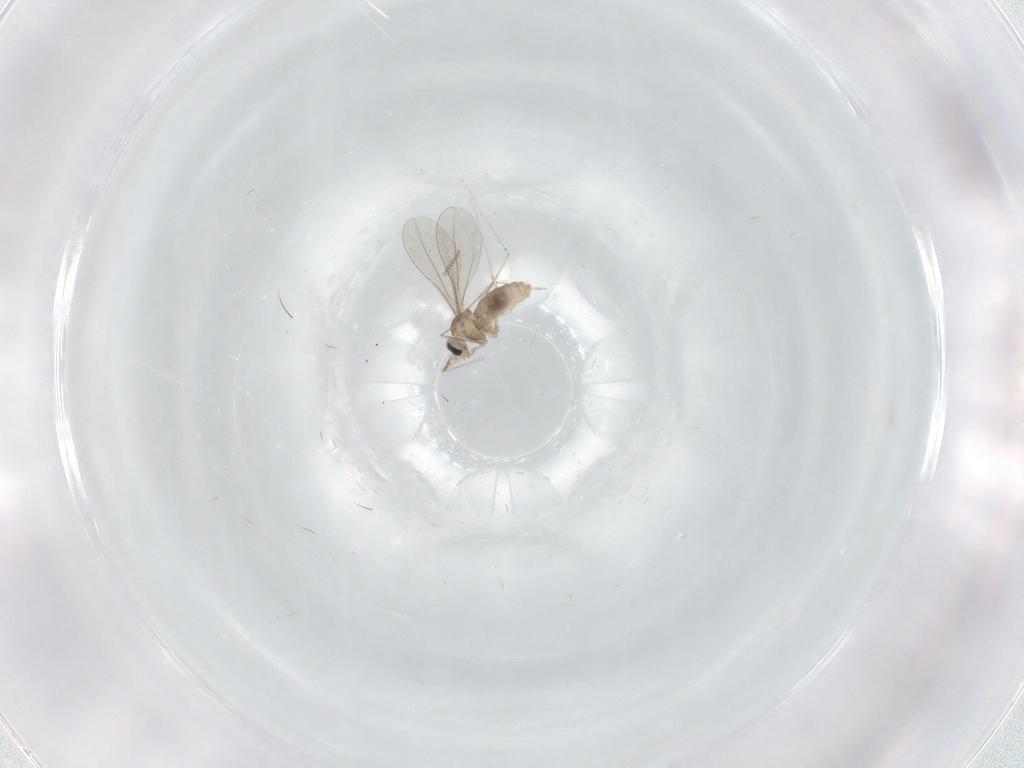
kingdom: Animalia
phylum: Arthropoda
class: Insecta
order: Diptera
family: Cecidomyiidae
